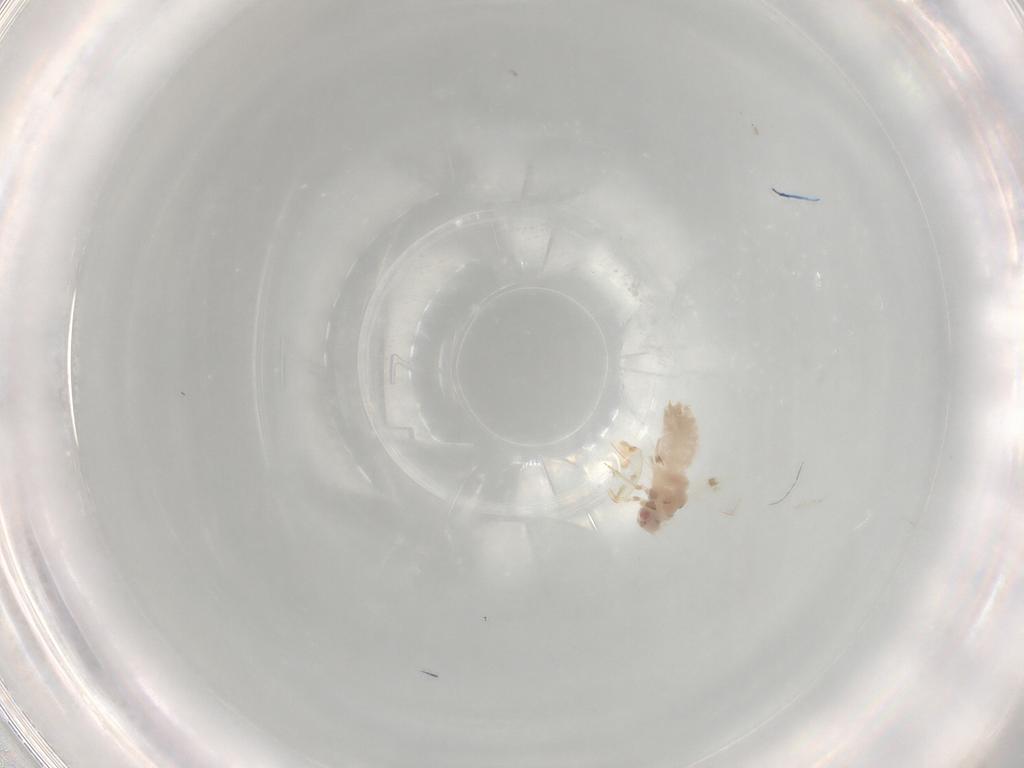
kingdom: Animalia
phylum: Arthropoda
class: Insecta
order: Hemiptera
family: Aleyrodidae
